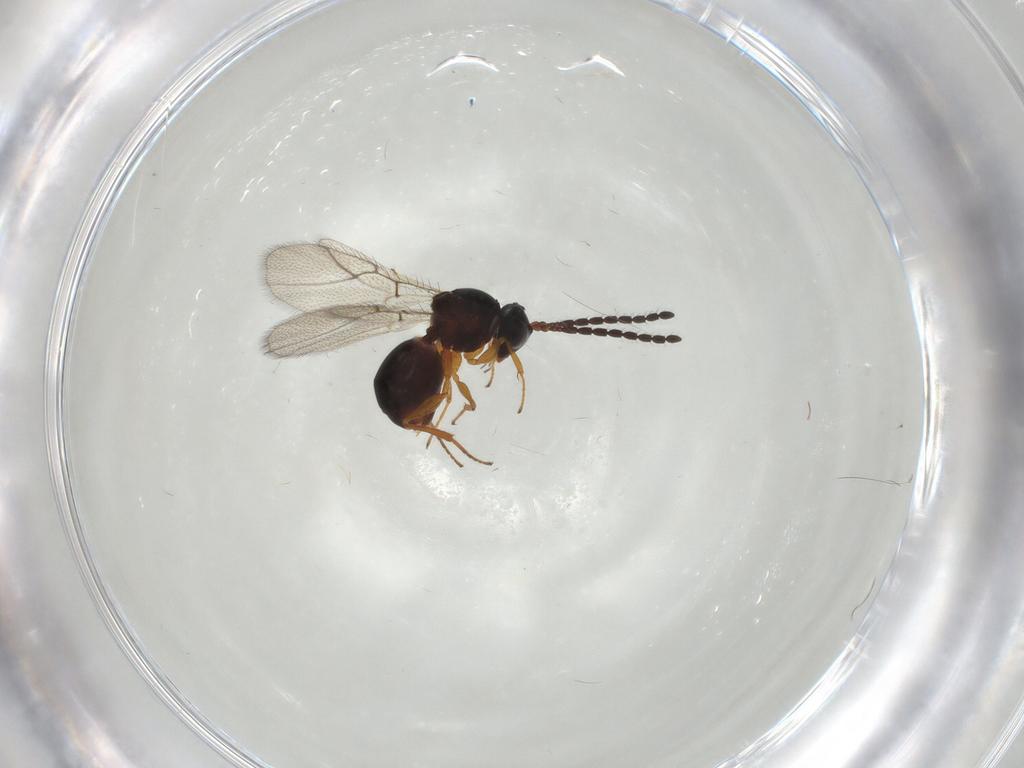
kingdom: Animalia
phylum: Arthropoda
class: Insecta
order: Hymenoptera
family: Figitidae
